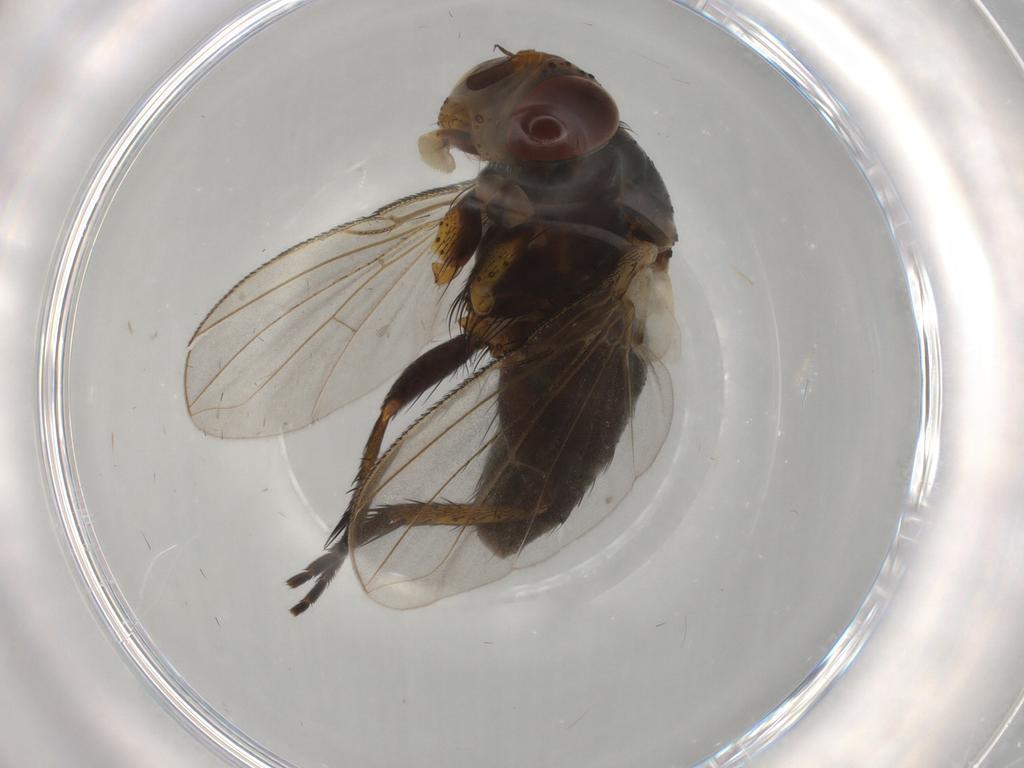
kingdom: Animalia
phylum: Arthropoda
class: Insecta
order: Diptera
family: Tachinidae
